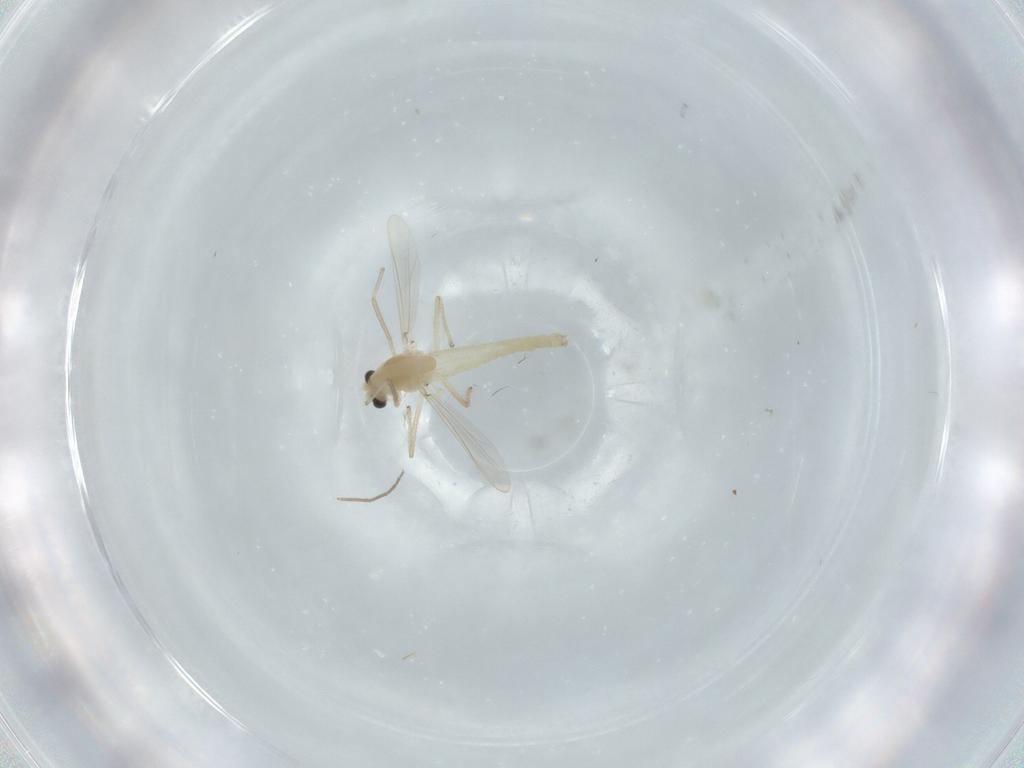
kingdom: Animalia
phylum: Arthropoda
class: Insecta
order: Diptera
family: Chironomidae
